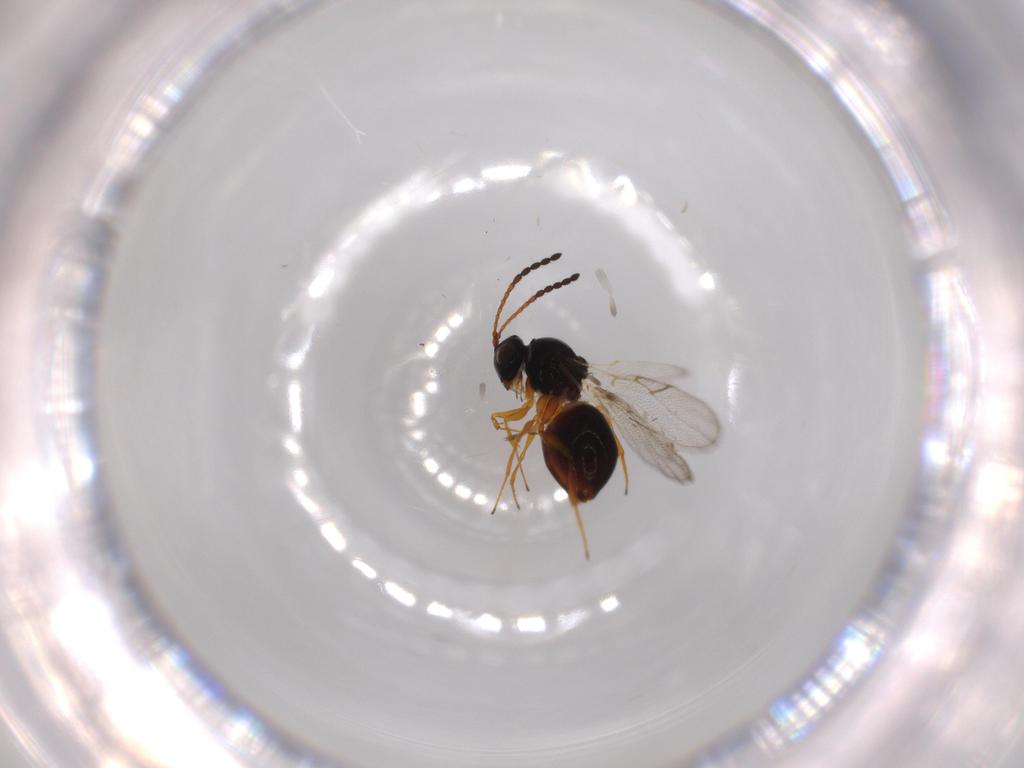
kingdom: Animalia
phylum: Arthropoda
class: Insecta
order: Hymenoptera
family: Figitidae
